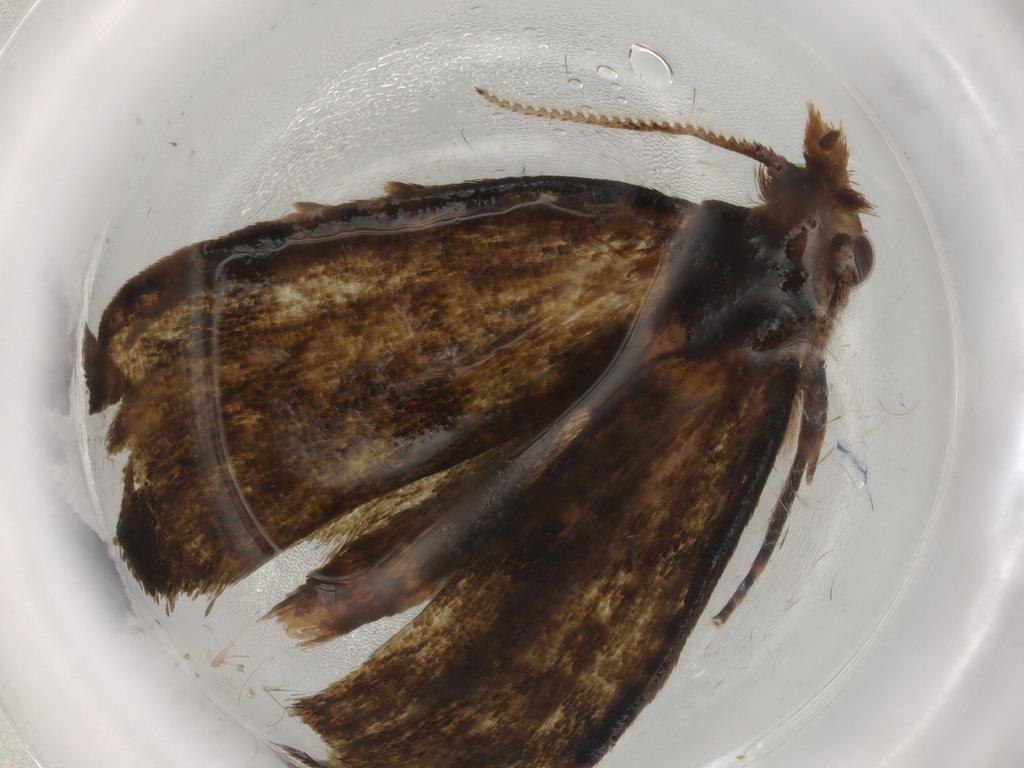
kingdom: Animalia
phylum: Arthropoda
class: Insecta
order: Lepidoptera
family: Geometridae
